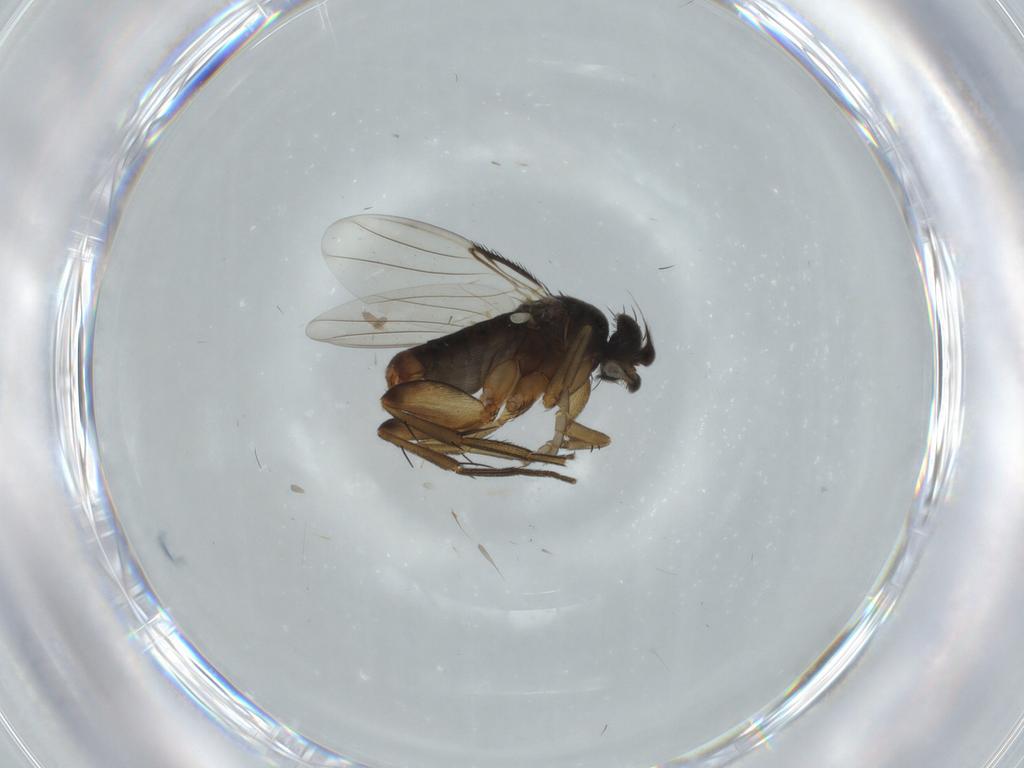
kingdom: Animalia
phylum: Arthropoda
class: Insecta
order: Diptera
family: Phoridae
